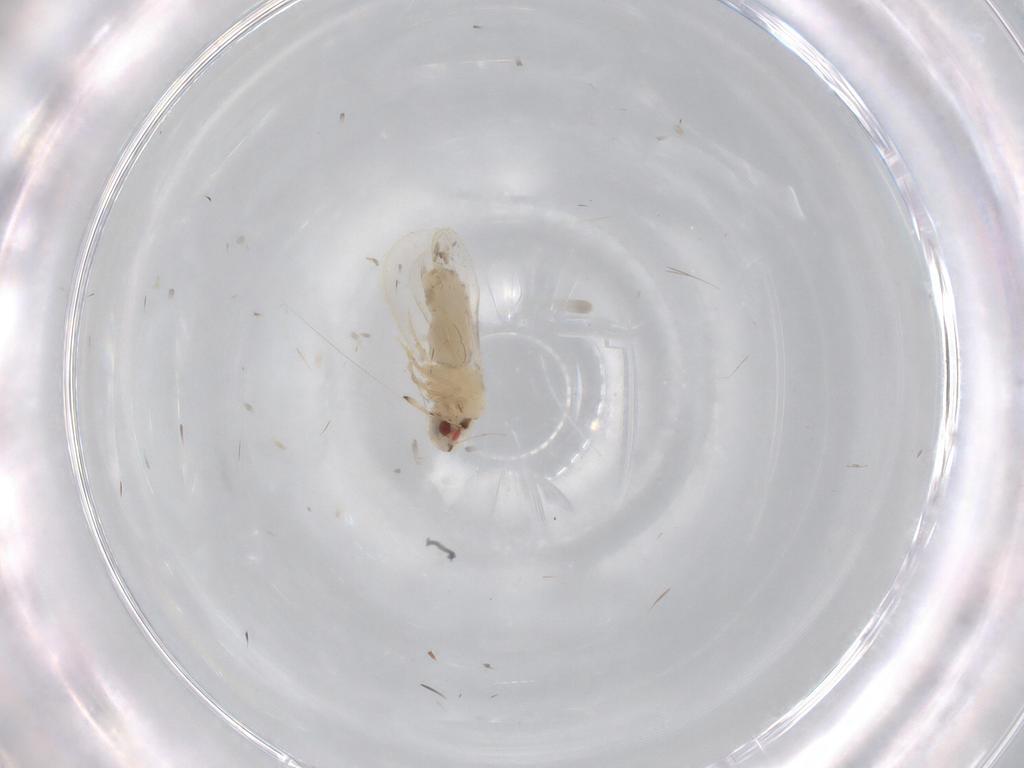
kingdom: Animalia
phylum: Arthropoda
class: Insecta
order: Hemiptera
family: Aleyrodidae
